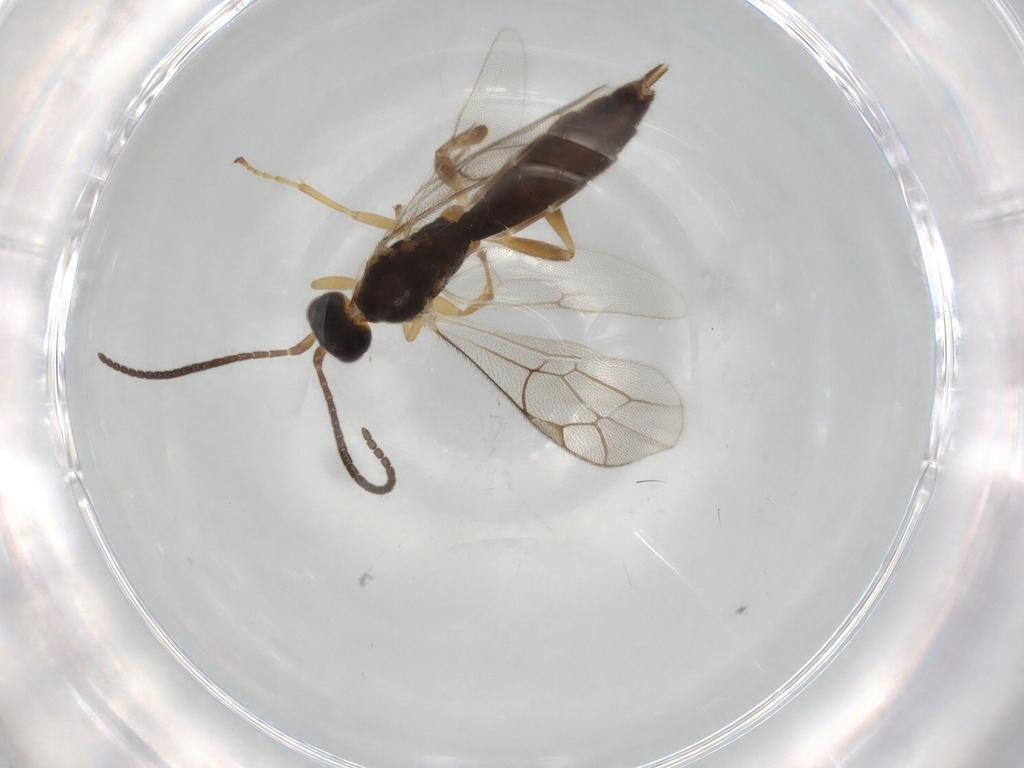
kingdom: Animalia
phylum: Arthropoda
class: Insecta
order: Hymenoptera
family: Ichneumonidae
